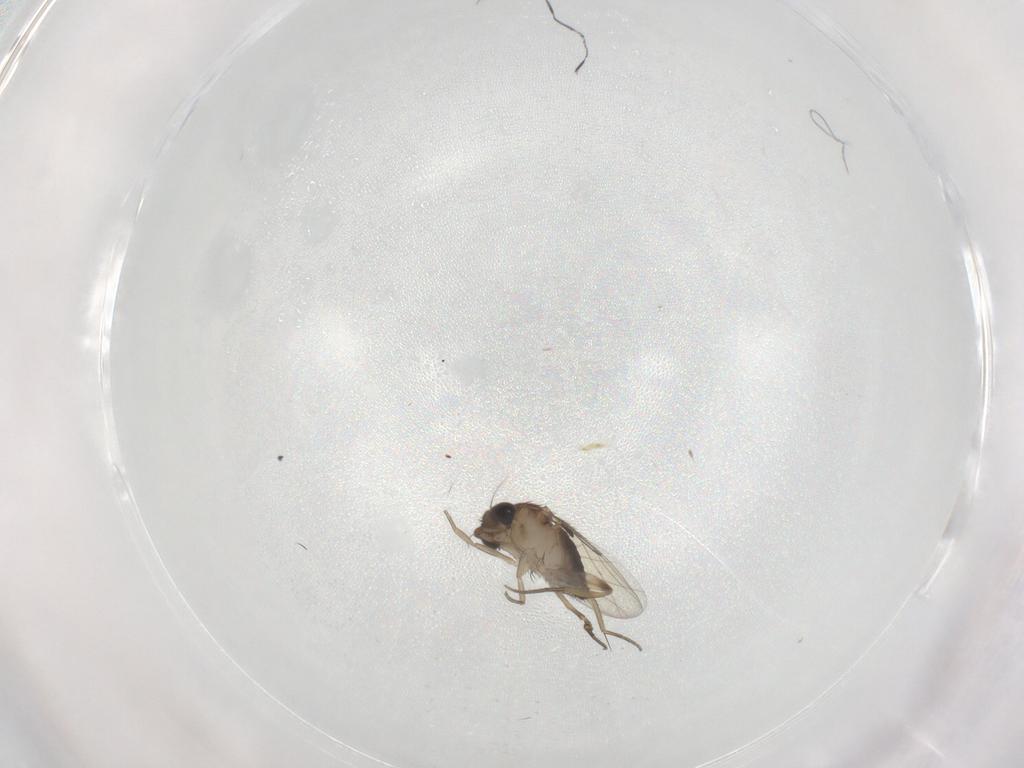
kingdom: Animalia
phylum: Arthropoda
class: Insecta
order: Diptera
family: Phoridae
